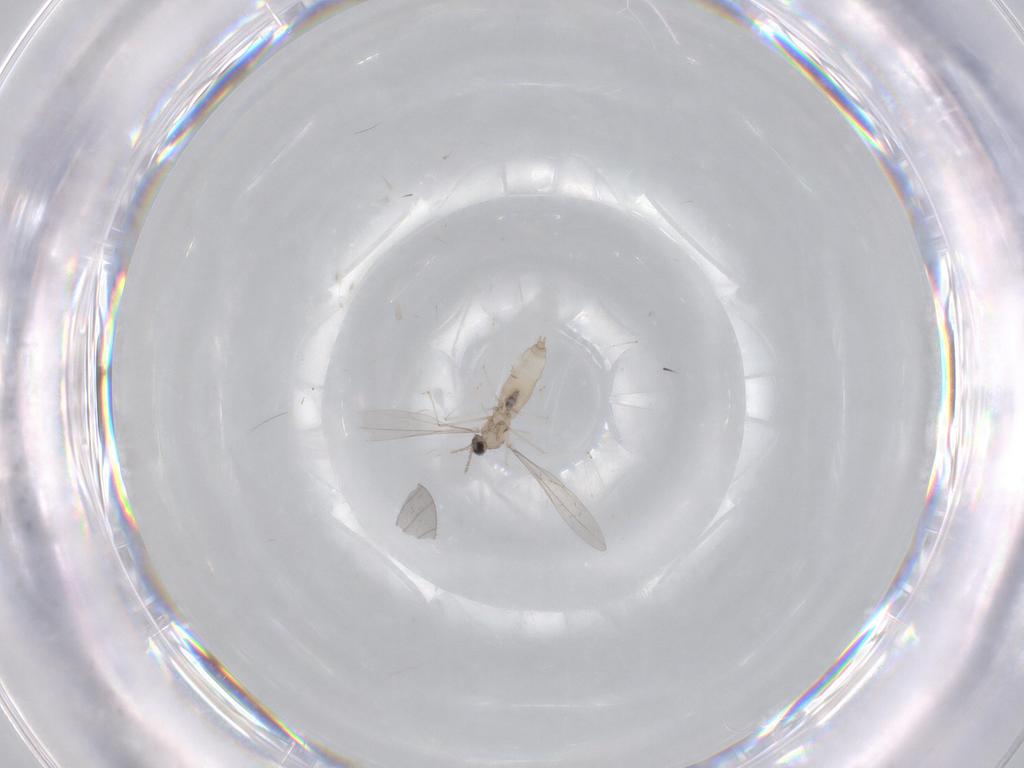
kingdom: Animalia
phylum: Arthropoda
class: Insecta
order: Diptera
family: Cecidomyiidae
